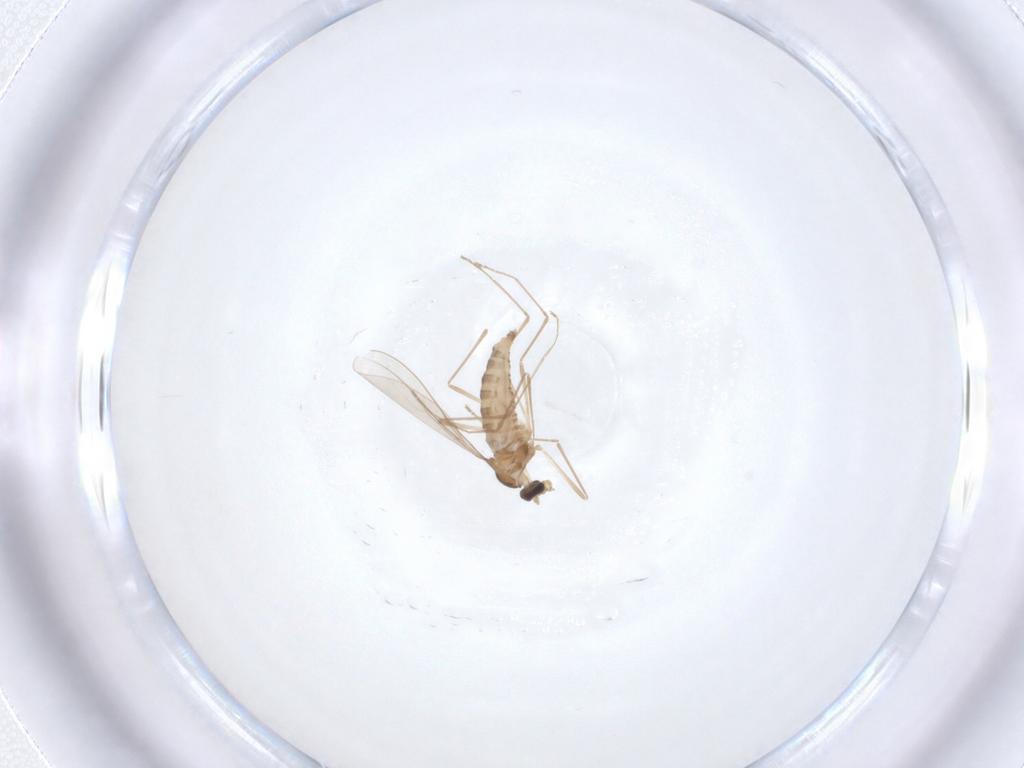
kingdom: Animalia
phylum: Arthropoda
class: Insecta
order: Diptera
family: Cecidomyiidae
